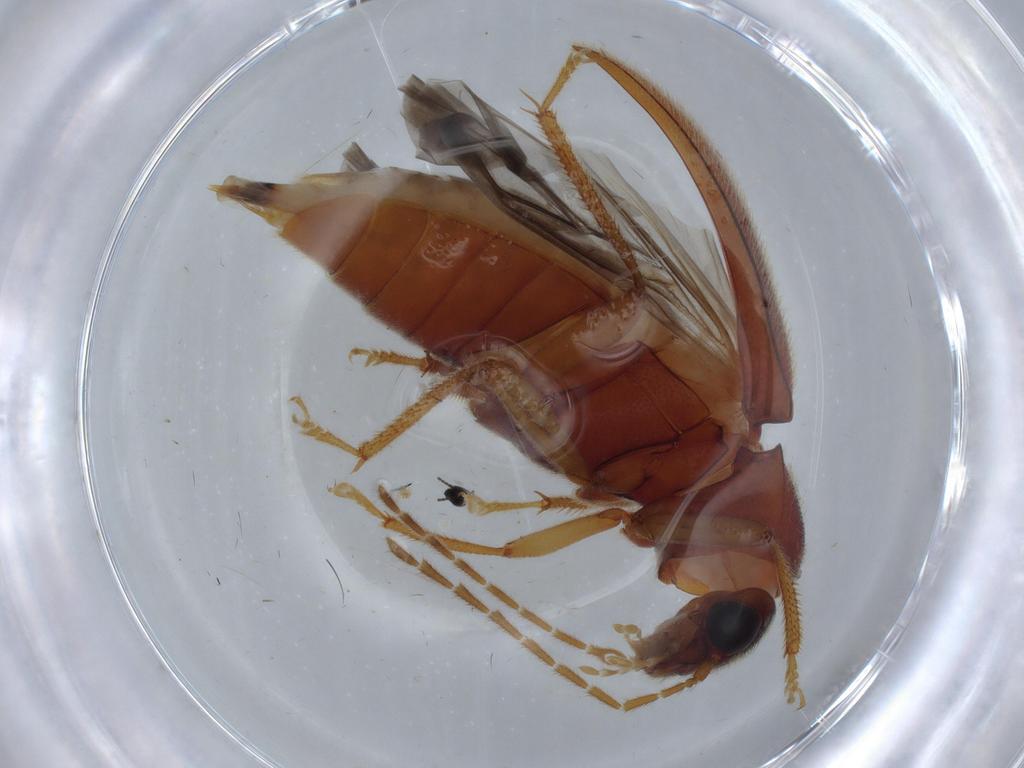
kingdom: Animalia
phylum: Arthropoda
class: Insecta
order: Coleoptera
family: Ptilodactylidae
